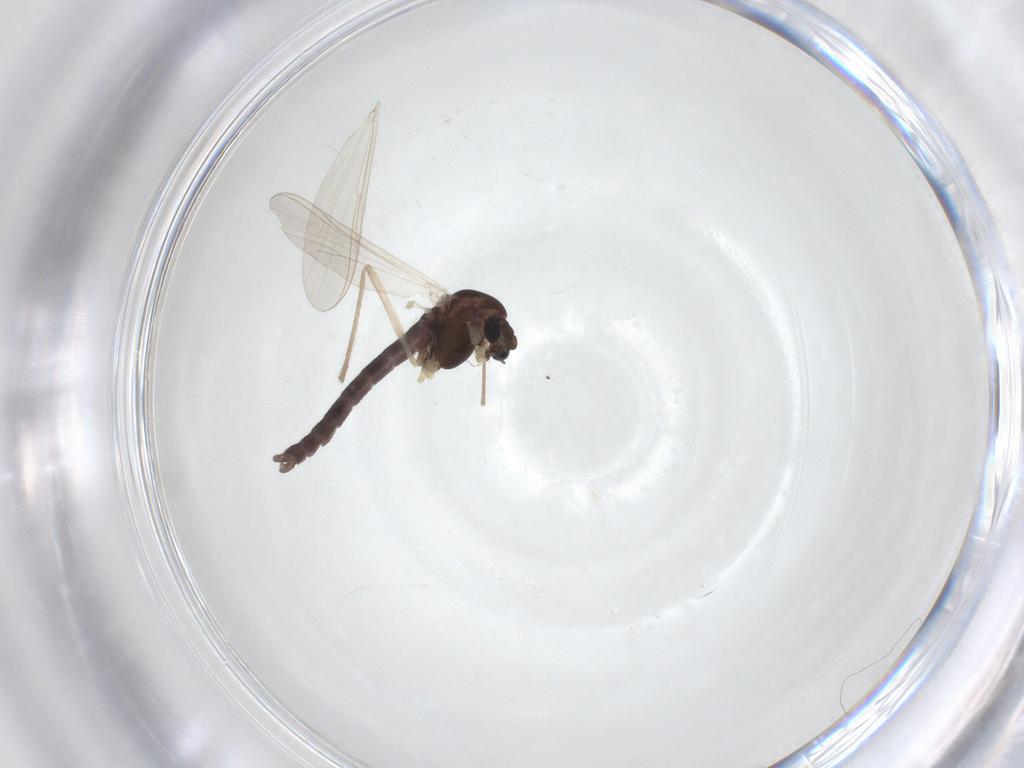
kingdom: Animalia
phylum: Arthropoda
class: Insecta
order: Diptera
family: Chironomidae
